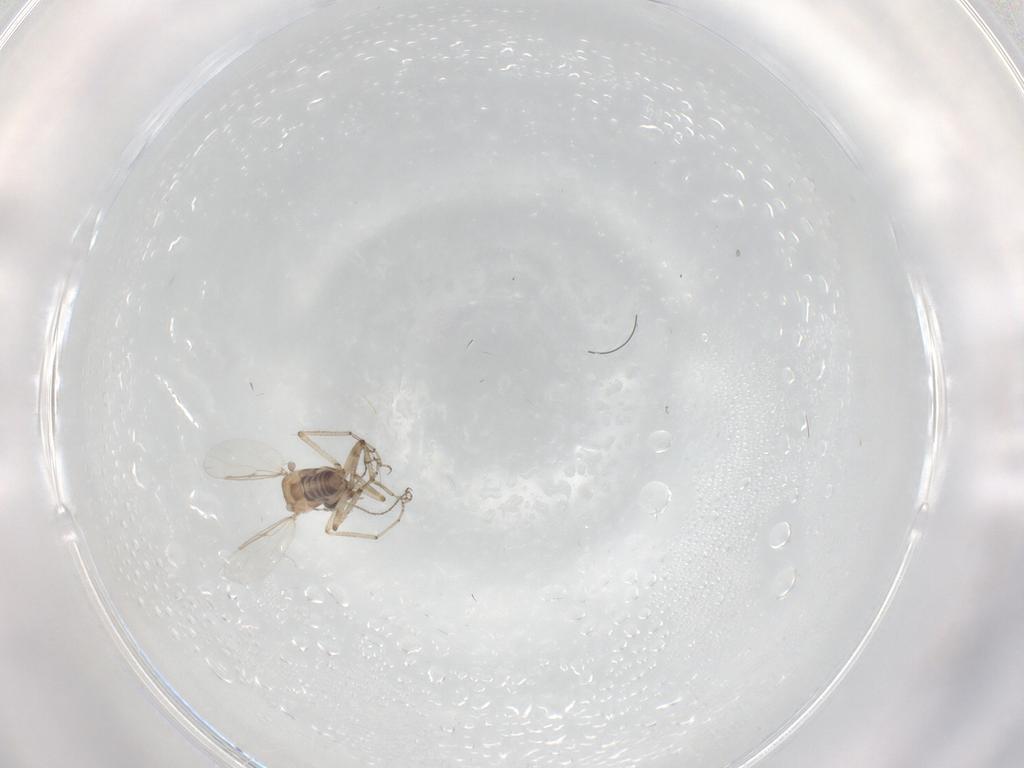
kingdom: Animalia
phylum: Arthropoda
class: Insecta
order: Diptera
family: Ceratopogonidae
